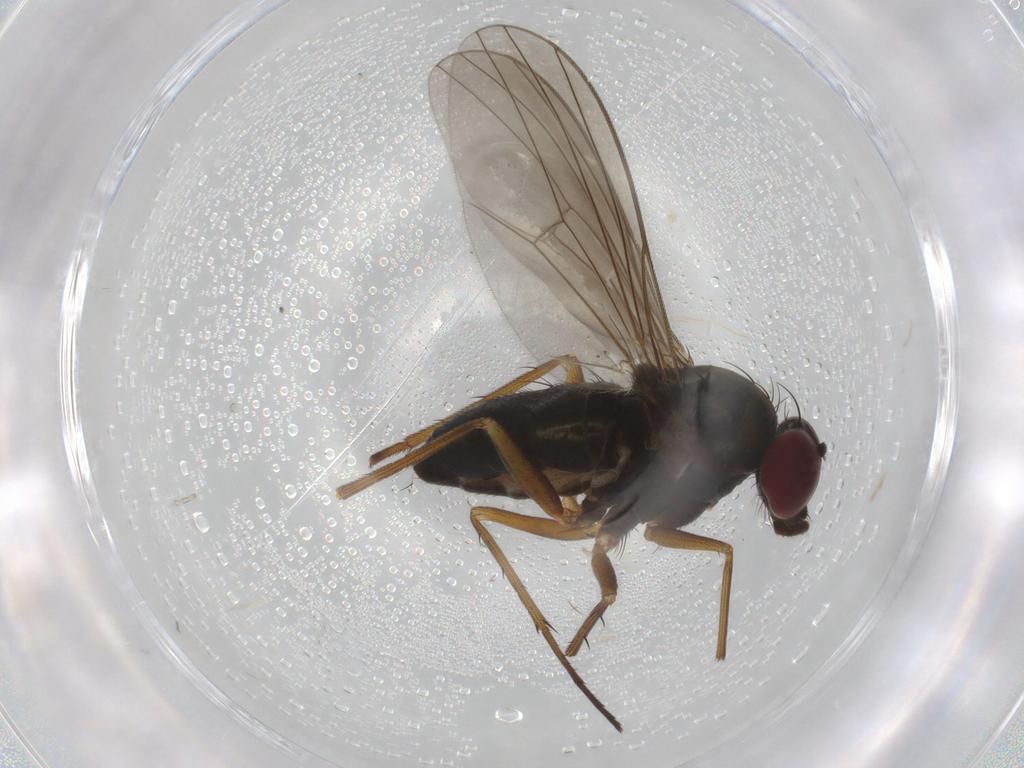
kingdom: Animalia
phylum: Arthropoda
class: Insecta
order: Diptera
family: Dolichopodidae
